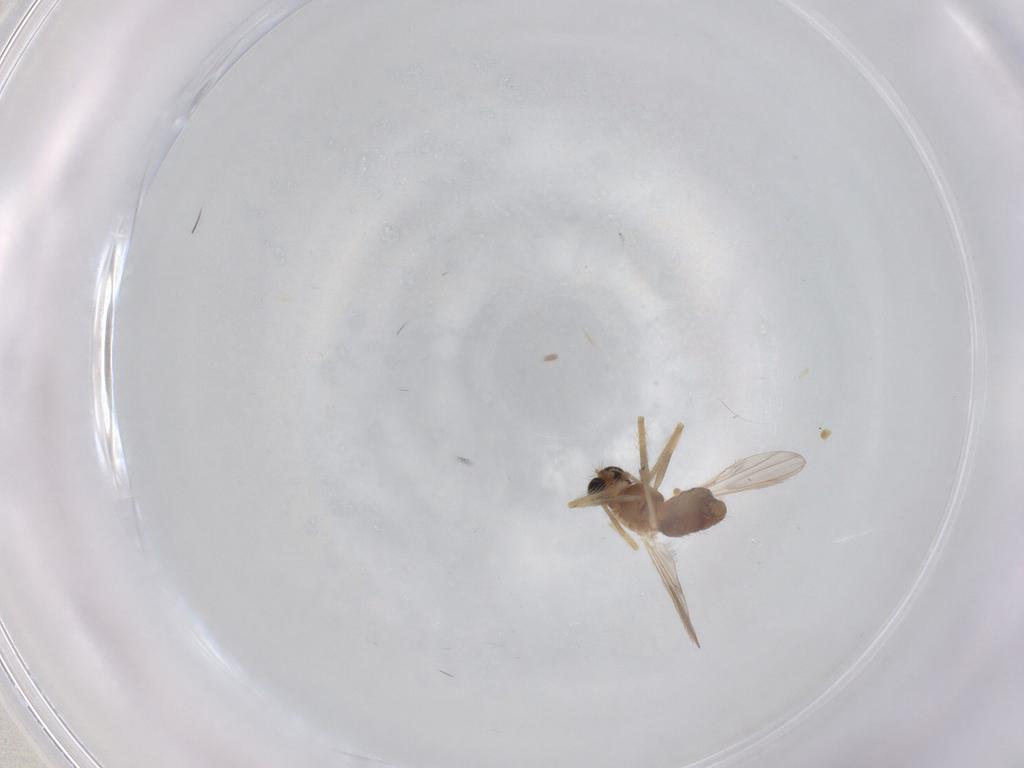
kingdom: Animalia
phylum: Arthropoda
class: Insecta
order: Diptera
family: Chironomidae
